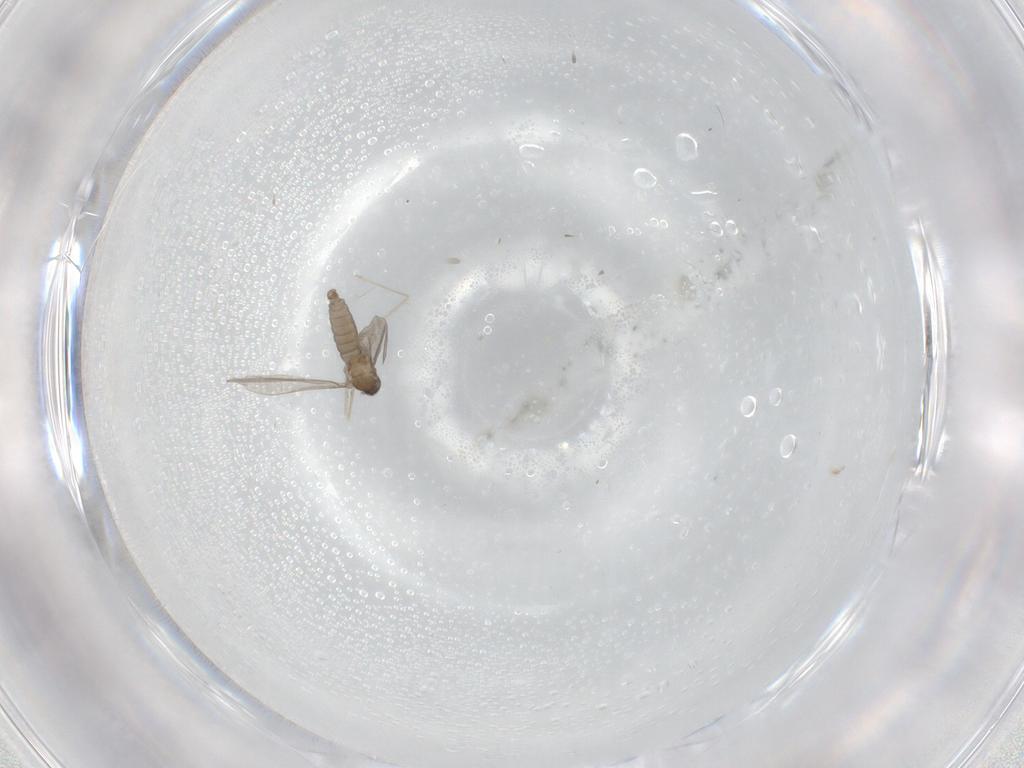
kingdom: Animalia
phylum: Arthropoda
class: Insecta
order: Diptera
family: Cecidomyiidae
